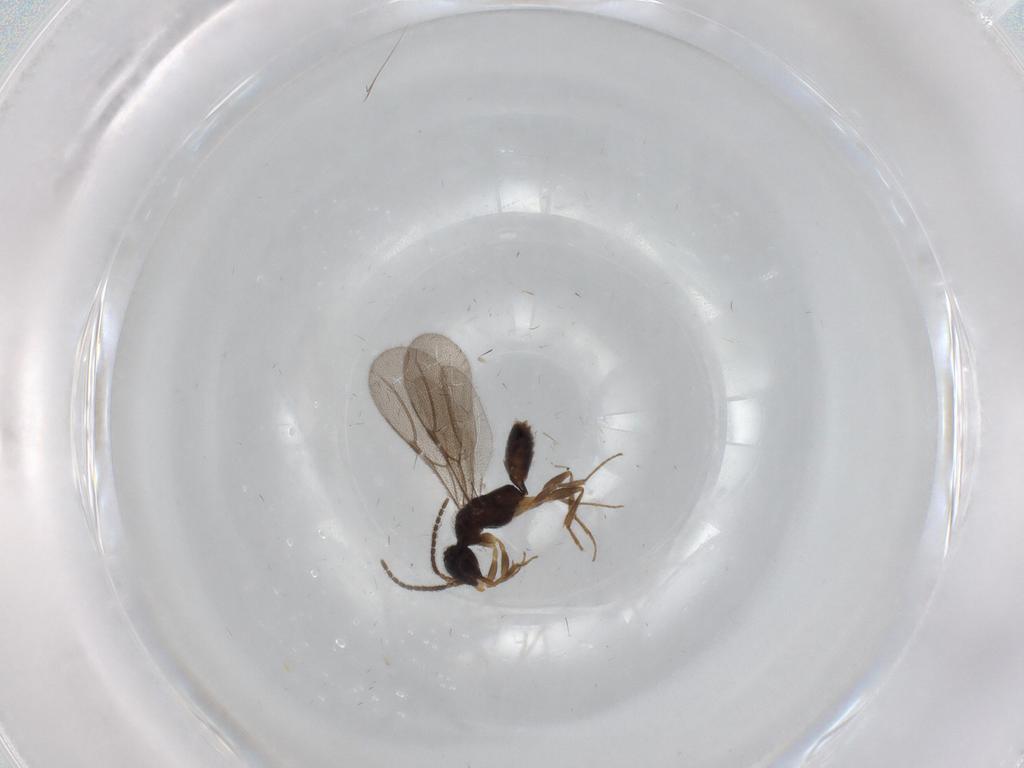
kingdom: Animalia
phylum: Arthropoda
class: Insecta
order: Hymenoptera
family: Bethylidae
